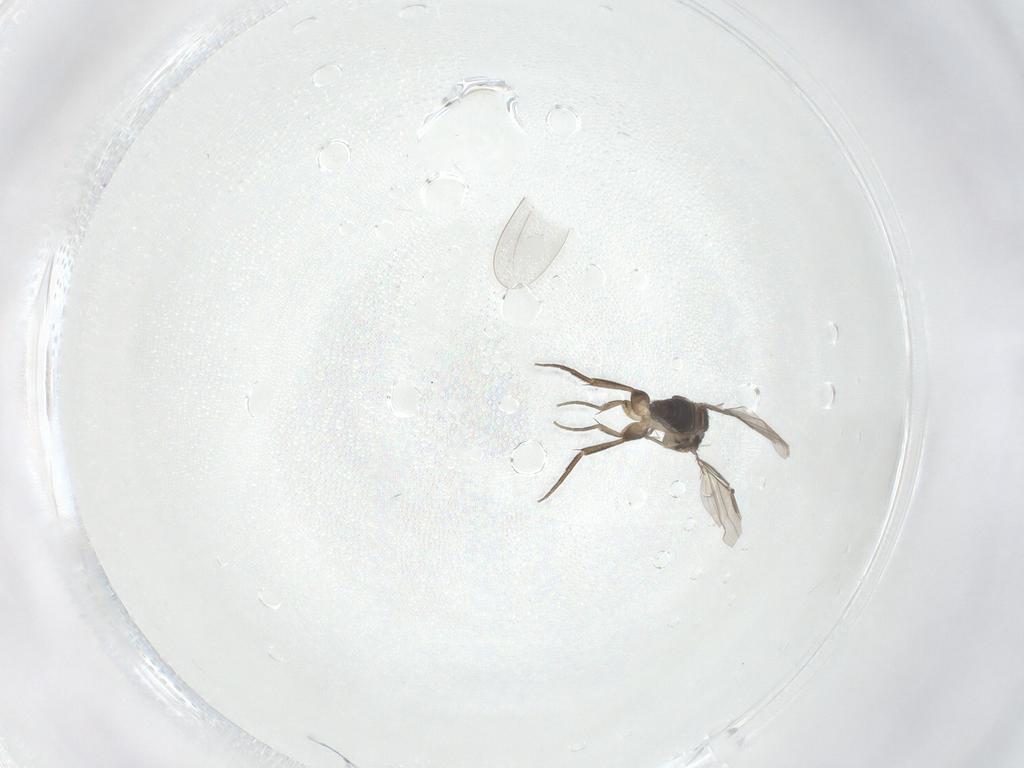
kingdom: Animalia
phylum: Arthropoda
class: Insecta
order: Diptera
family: Phoridae
